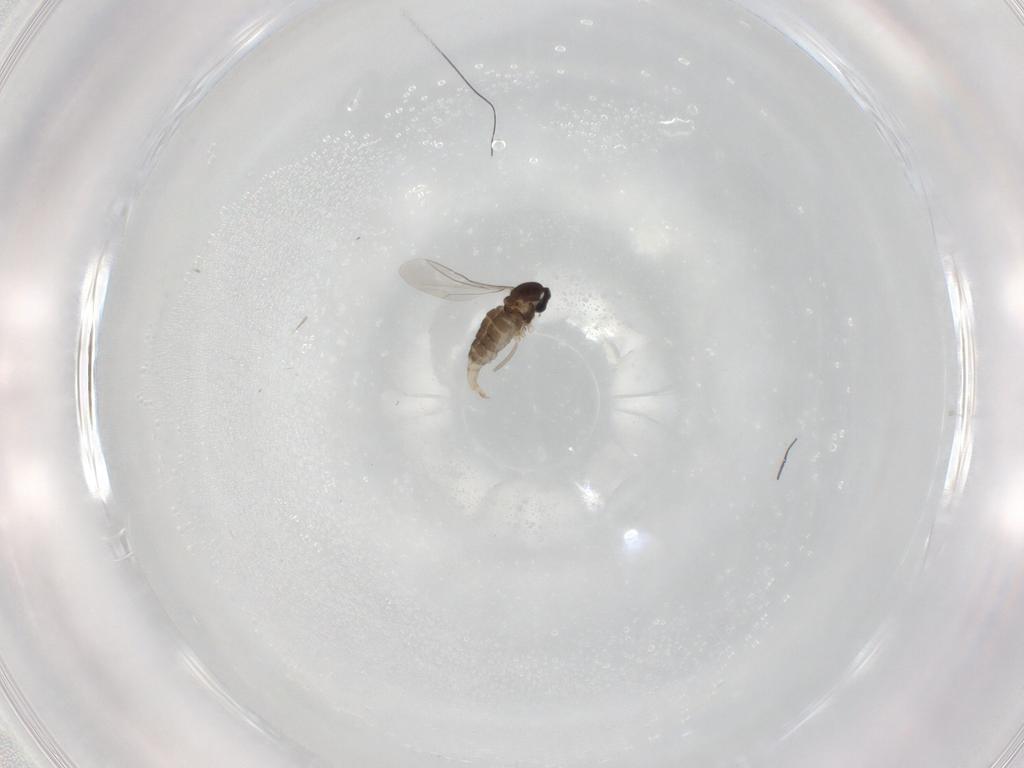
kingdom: Animalia
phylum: Arthropoda
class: Insecta
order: Diptera
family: Cecidomyiidae
